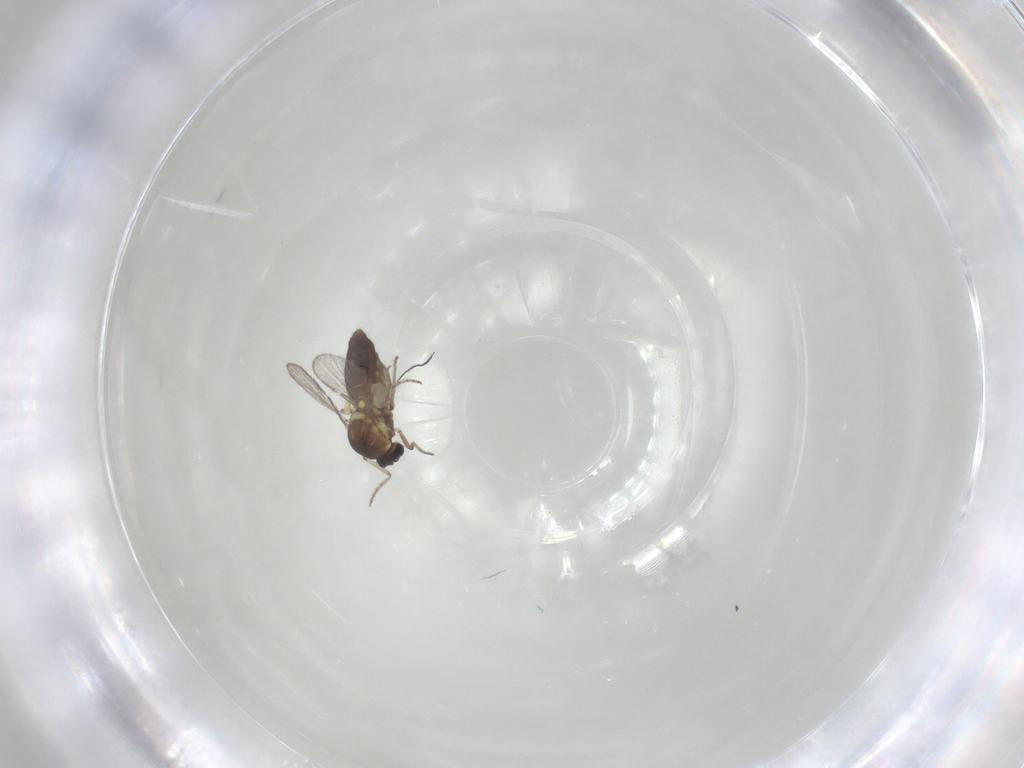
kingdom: Animalia
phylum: Arthropoda
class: Insecta
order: Diptera
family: Ceratopogonidae
